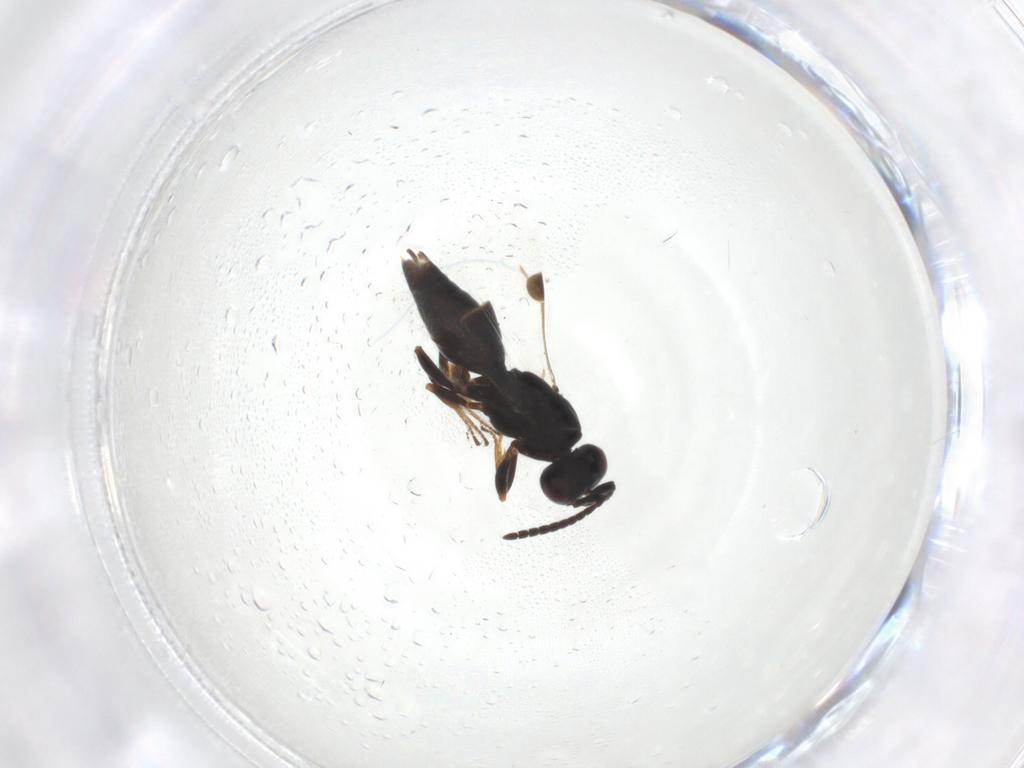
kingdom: Animalia
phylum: Arthropoda
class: Insecta
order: Hymenoptera
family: Megaspilidae
